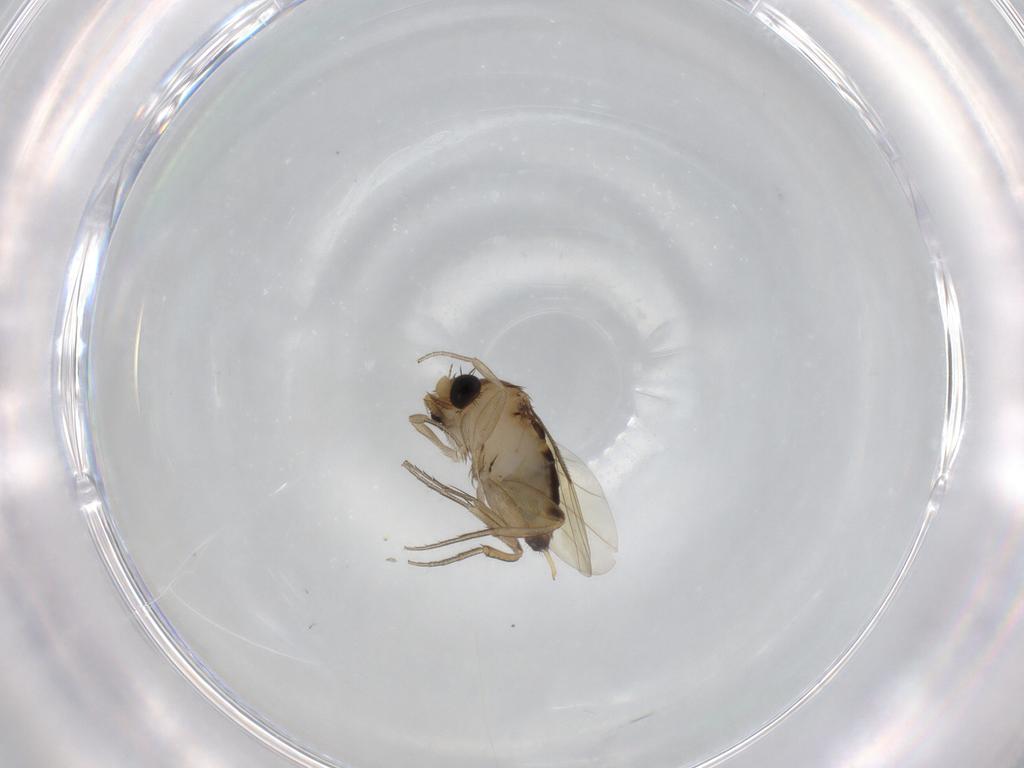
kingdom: Animalia
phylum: Arthropoda
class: Insecta
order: Diptera
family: Phoridae
